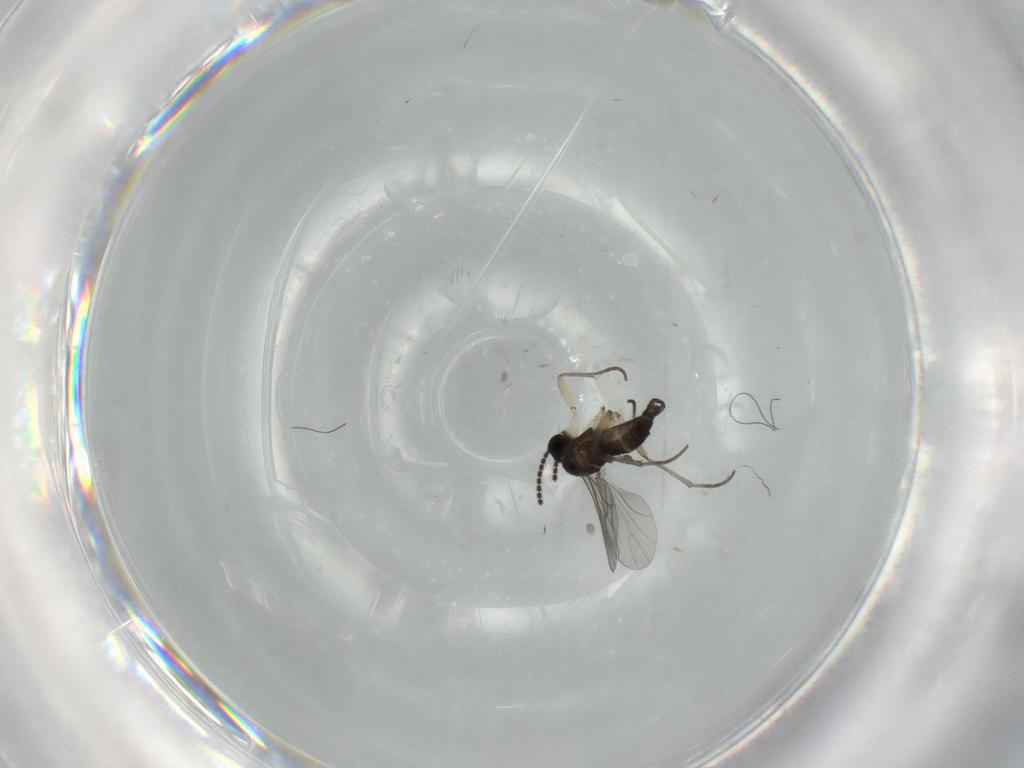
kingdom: Animalia
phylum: Arthropoda
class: Insecta
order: Diptera
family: Sciaridae
